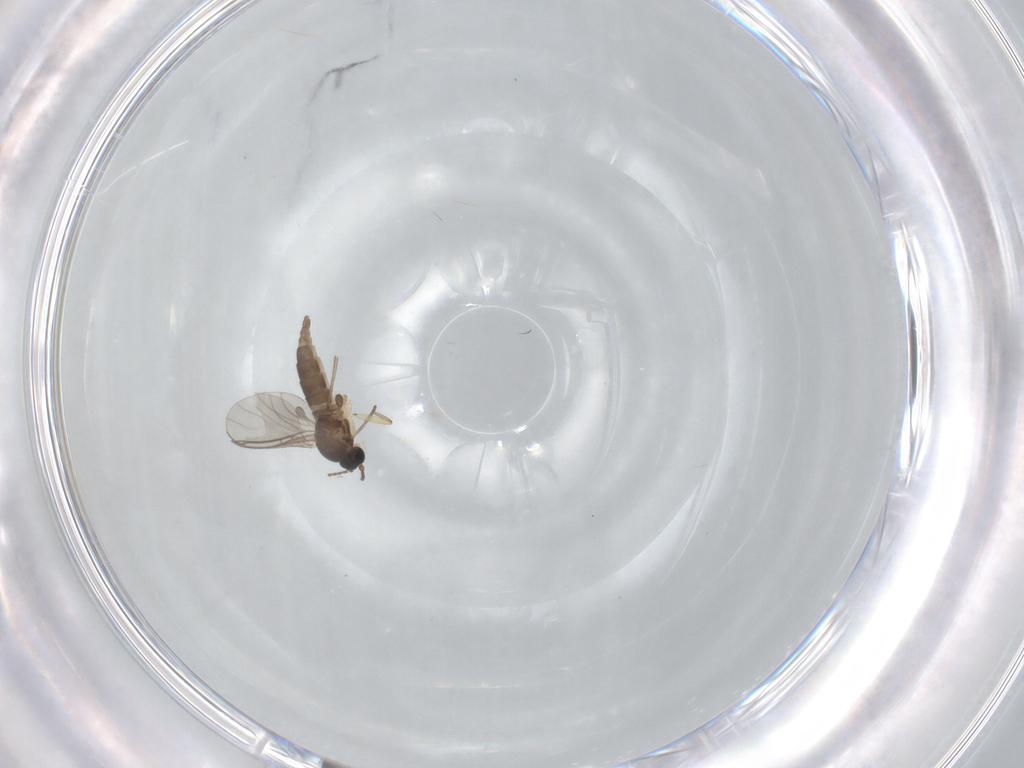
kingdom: Animalia
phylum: Arthropoda
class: Insecta
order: Diptera
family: Sciaridae
